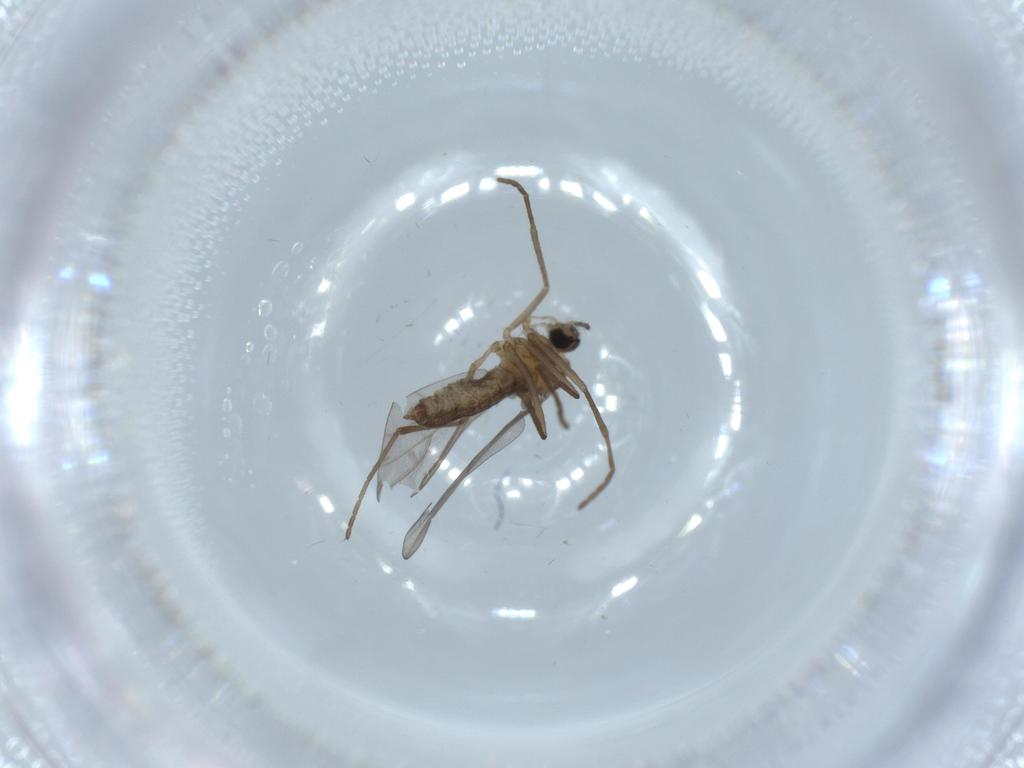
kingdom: Animalia
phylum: Arthropoda
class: Insecta
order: Diptera
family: Cecidomyiidae
